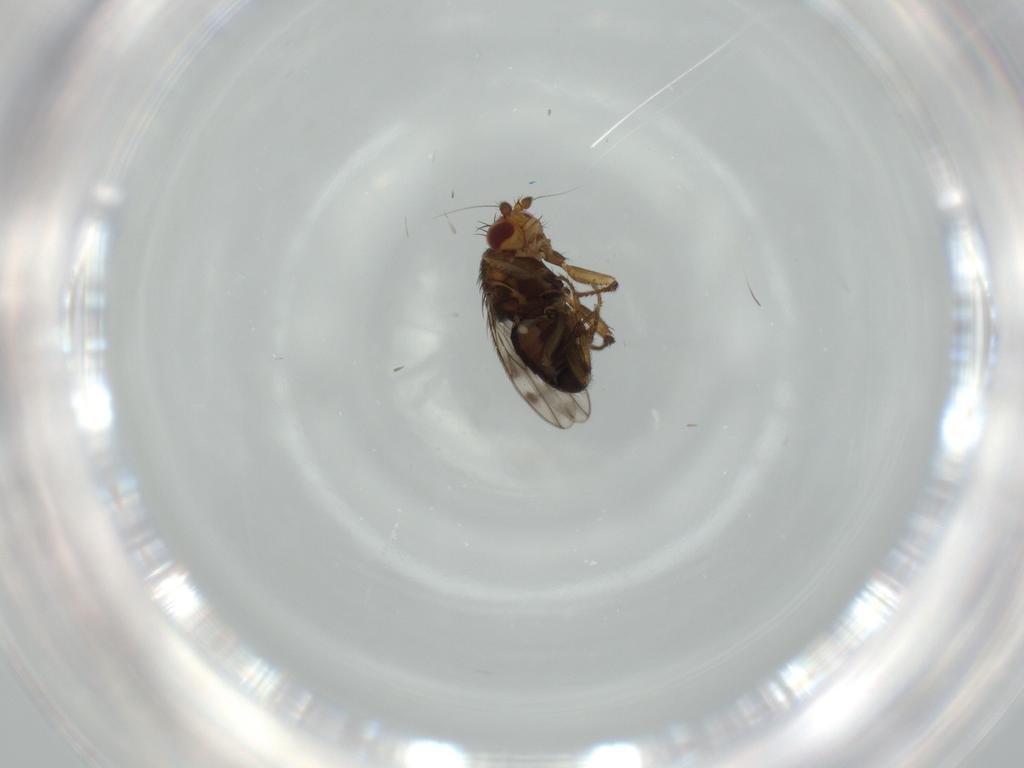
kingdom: Animalia
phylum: Arthropoda
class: Insecta
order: Diptera
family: Sphaeroceridae
